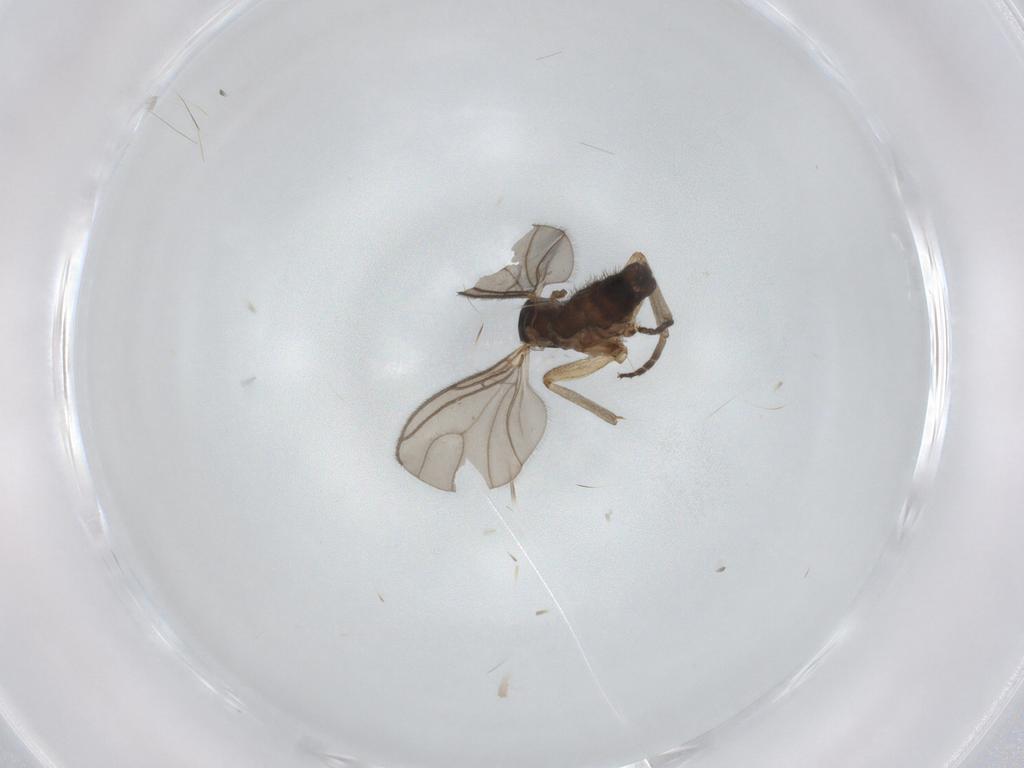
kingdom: Animalia
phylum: Arthropoda
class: Insecta
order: Diptera
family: Sciaridae
